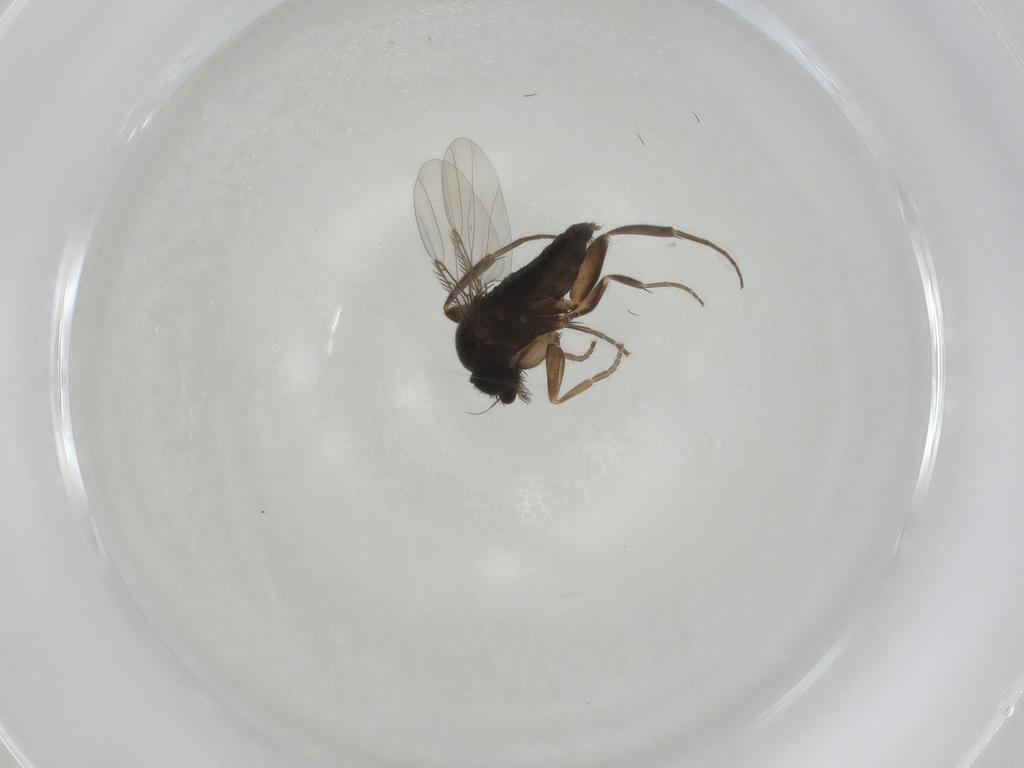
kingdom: Animalia
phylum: Arthropoda
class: Insecta
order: Diptera
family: Phoridae
